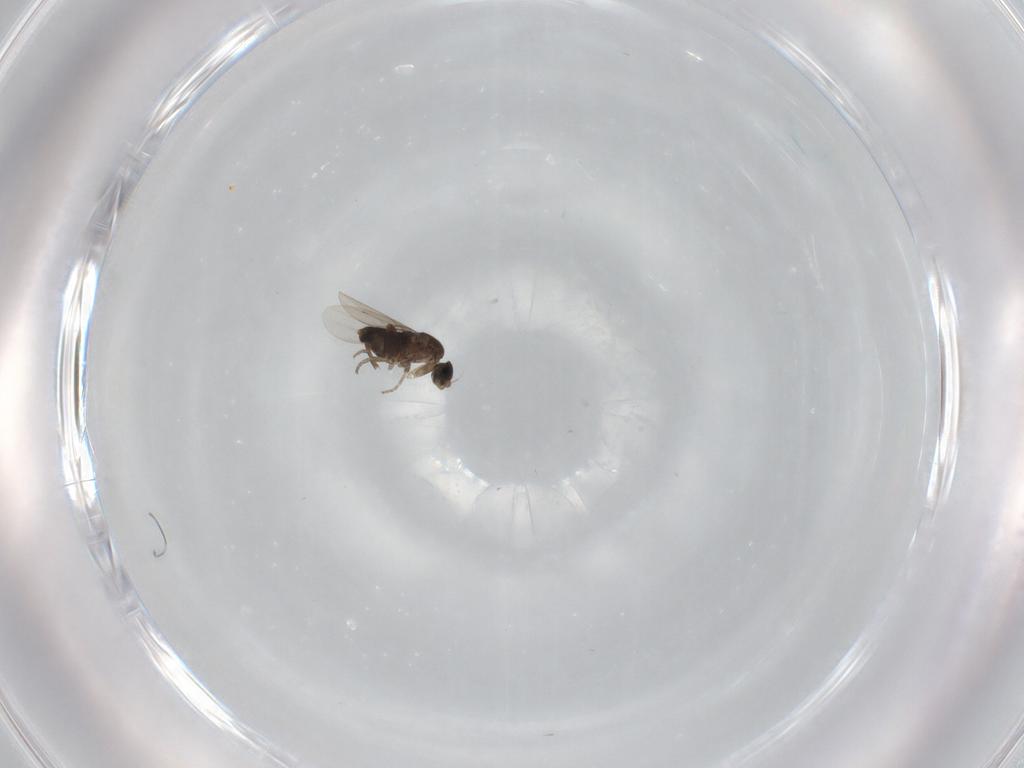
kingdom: Animalia
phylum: Arthropoda
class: Insecta
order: Diptera
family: Phoridae
